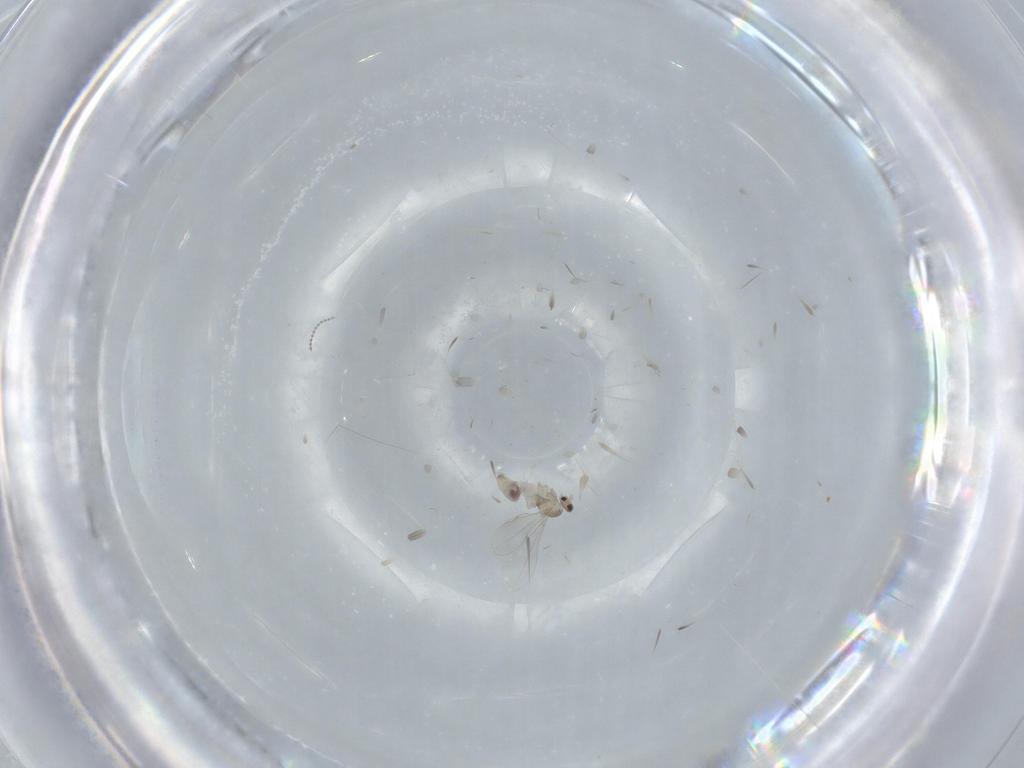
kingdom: Animalia
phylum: Arthropoda
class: Insecta
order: Diptera
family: Cecidomyiidae
